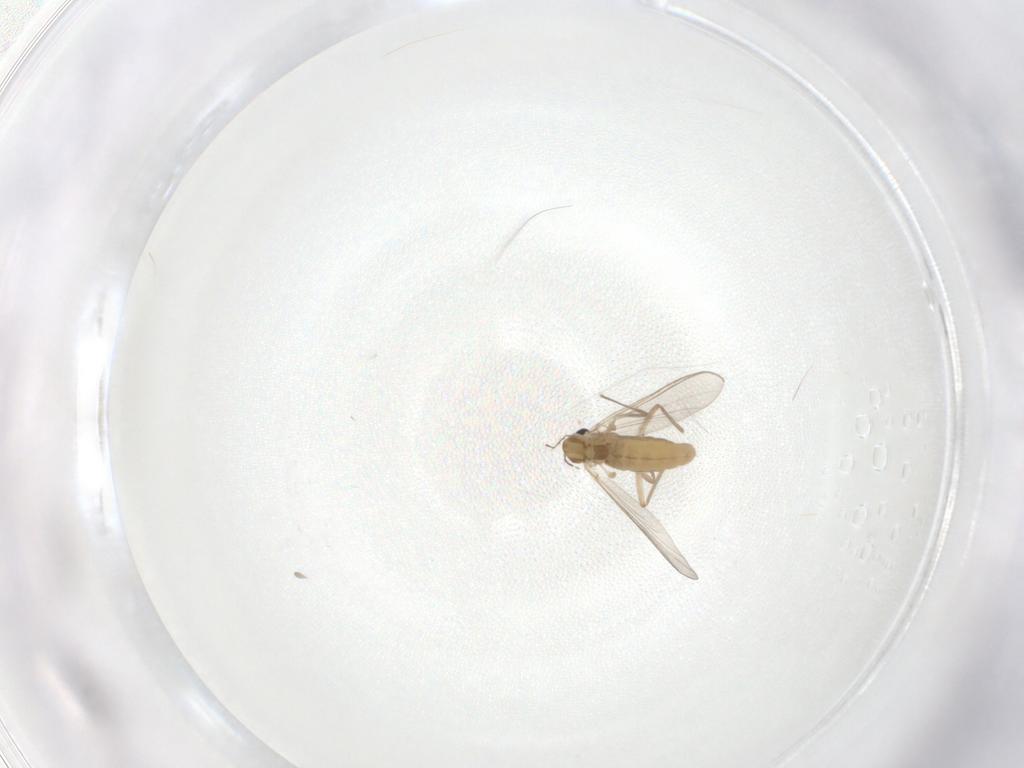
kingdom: Animalia
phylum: Arthropoda
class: Insecta
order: Diptera
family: Chironomidae
